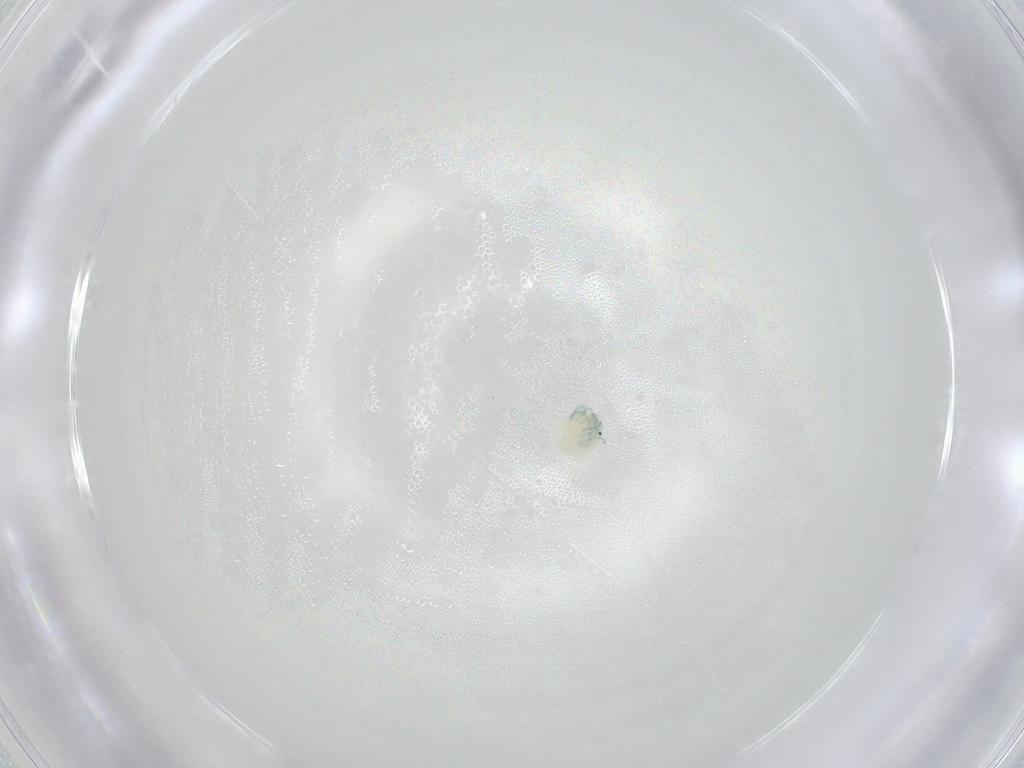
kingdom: Animalia
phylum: Arthropoda
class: Arachnida
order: Trombidiformes
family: Arrenuridae
